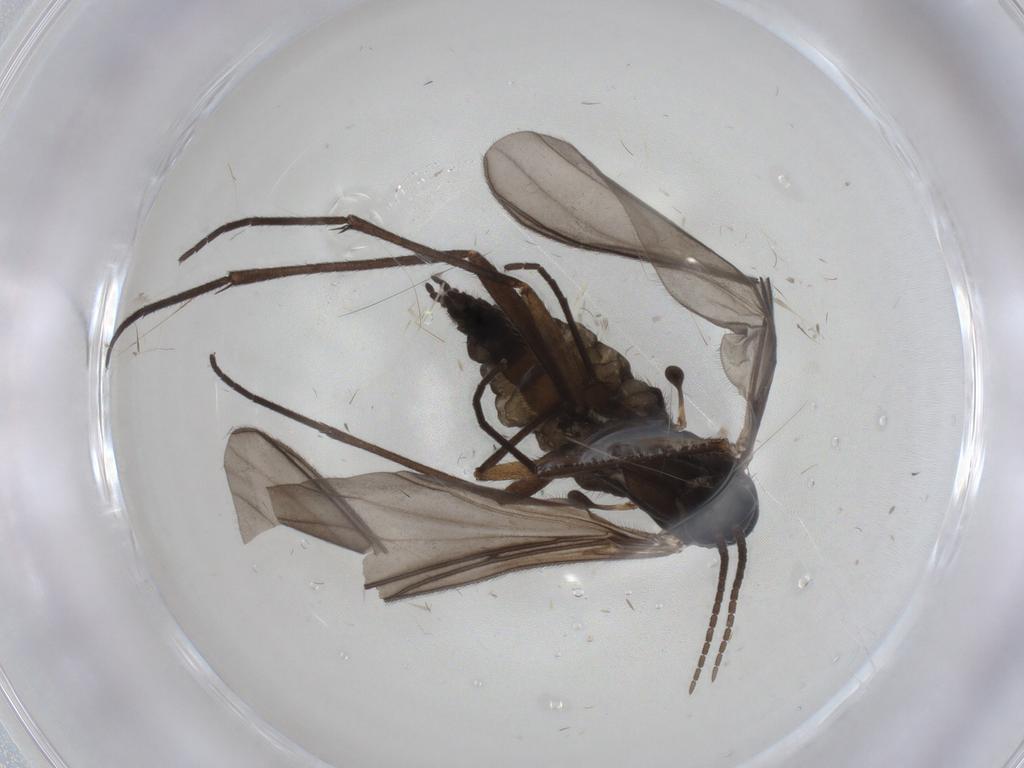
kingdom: Animalia
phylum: Arthropoda
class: Insecta
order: Diptera
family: Sciaridae
